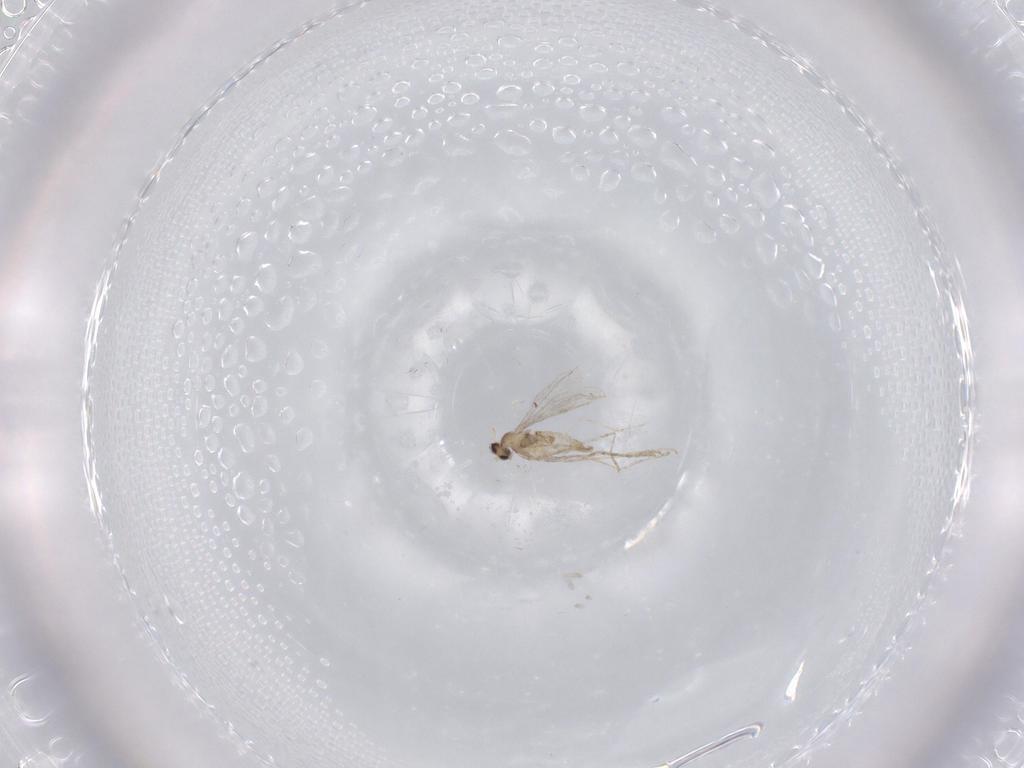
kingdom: Animalia
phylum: Arthropoda
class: Insecta
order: Diptera
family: Cecidomyiidae
